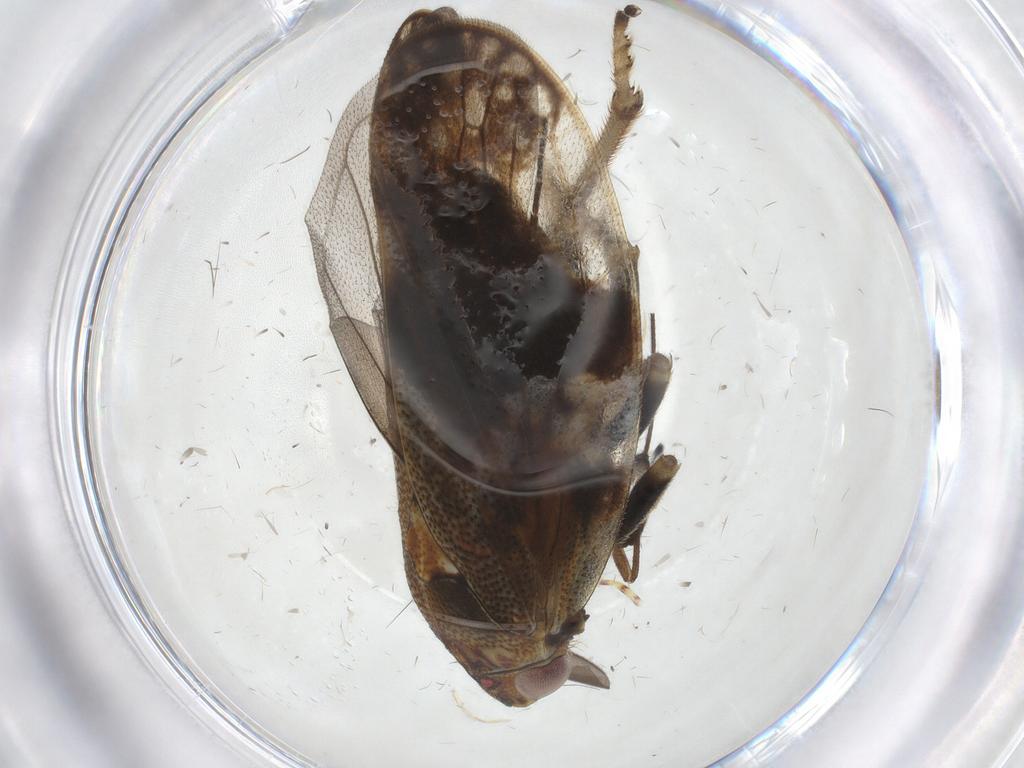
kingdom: Animalia
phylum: Arthropoda
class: Insecta
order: Hemiptera
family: Aphrophoridae
